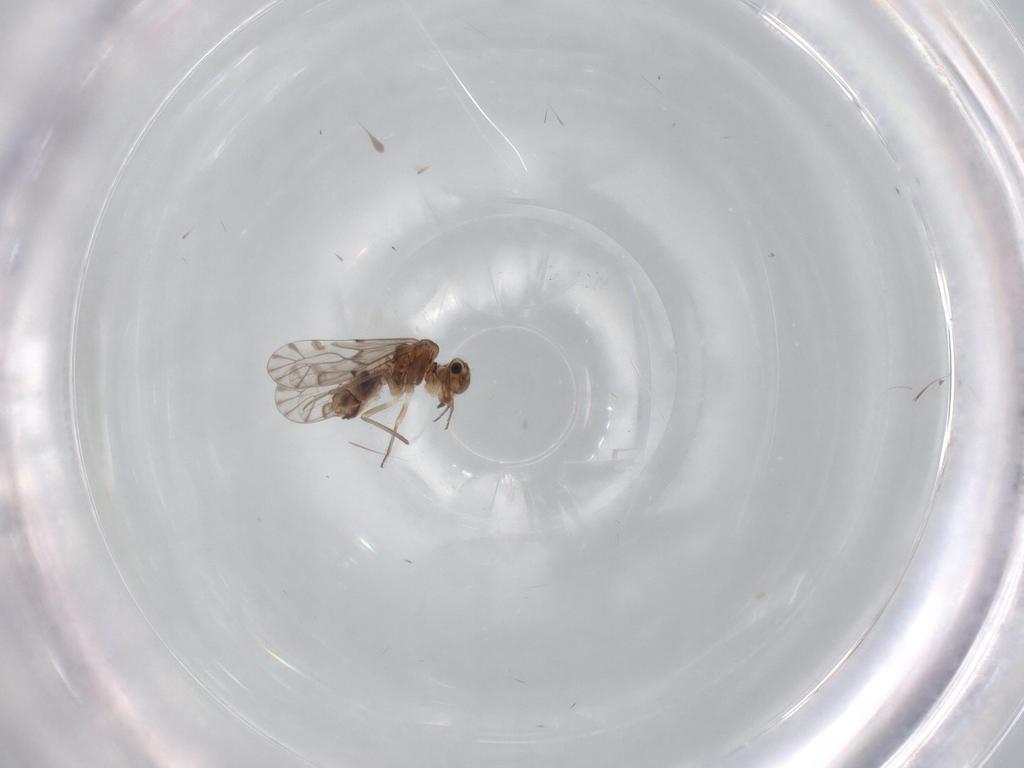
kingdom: Animalia
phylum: Arthropoda
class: Insecta
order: Psocodea
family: Lachesillidae
